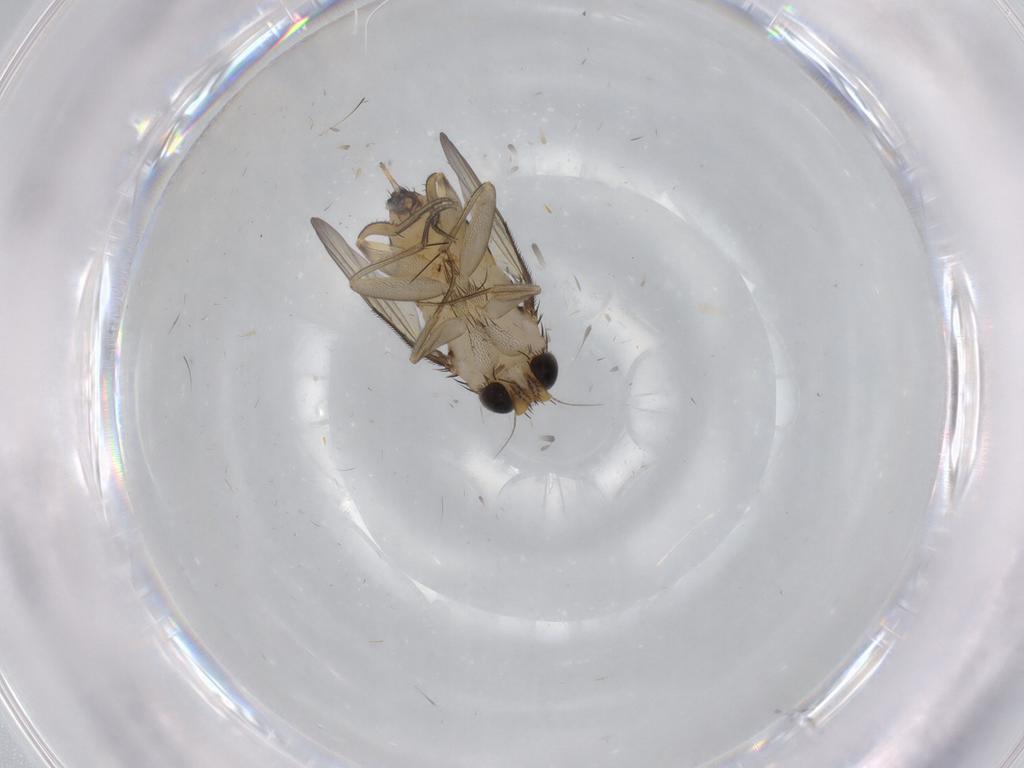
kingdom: Animalia
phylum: Arthropoda
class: Insecta
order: Diptera
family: Phoridae
